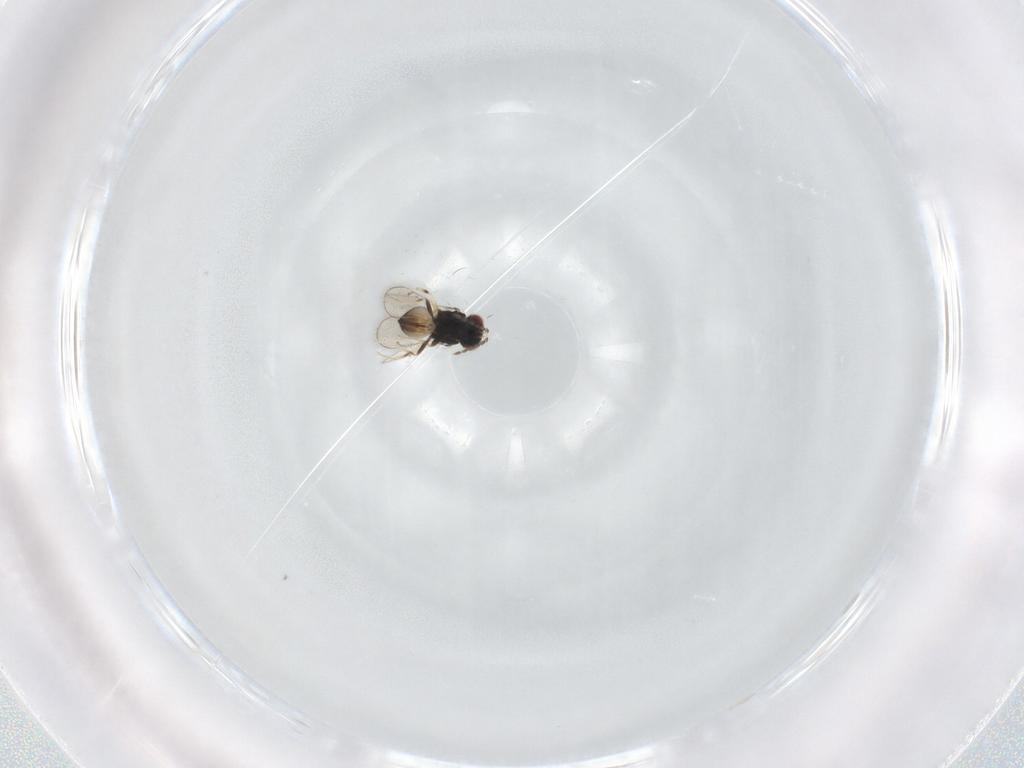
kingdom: Animalia
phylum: Arthropoda
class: Insecta
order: Hymenoptera
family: Eulophidae
